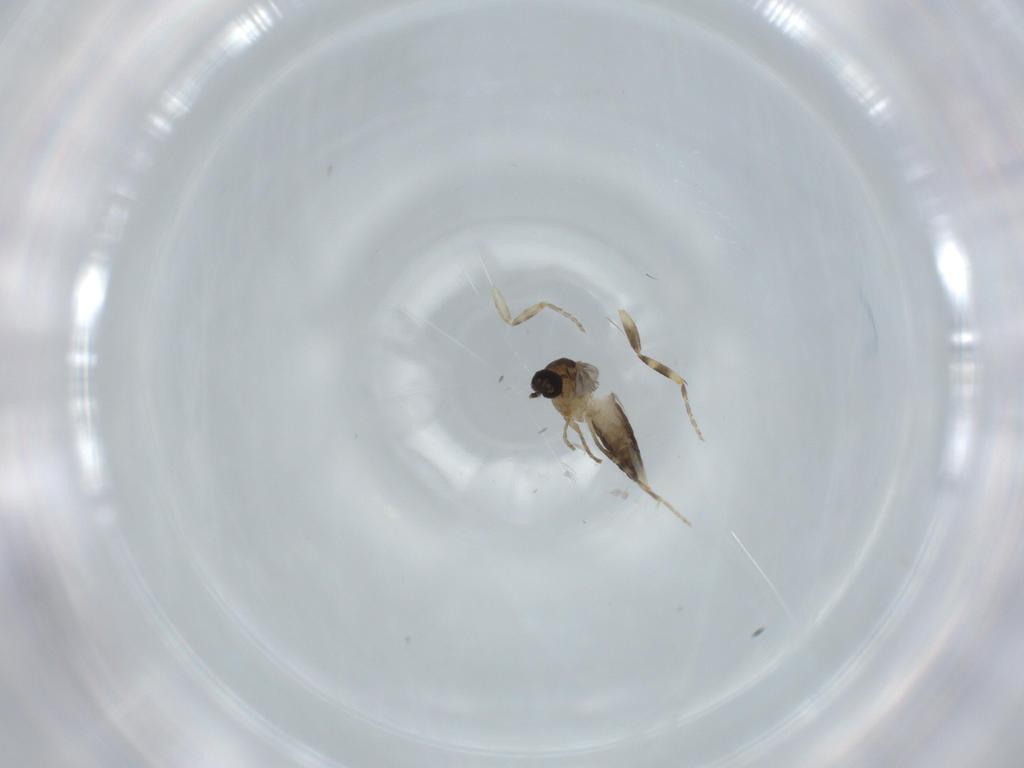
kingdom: Animalia
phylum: Arthropoda
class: Insecta
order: Diptera
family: Ceratopogonidae
